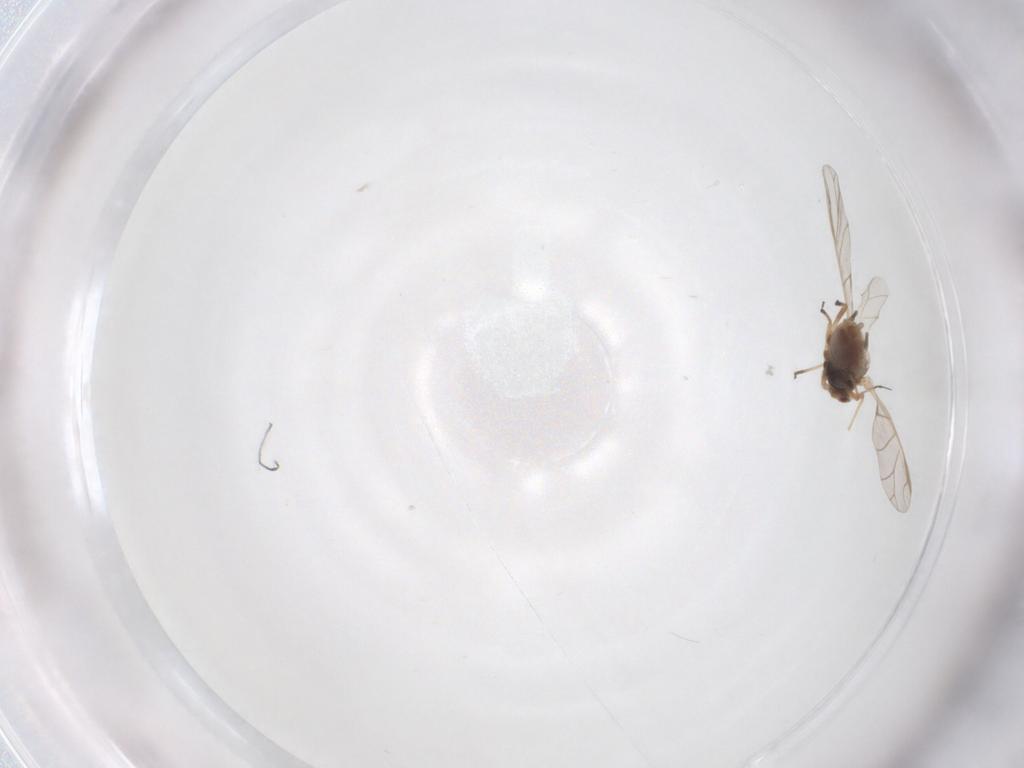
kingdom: Animalia
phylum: Arthropoda
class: Insecta
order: Hemiptera
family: Aphididae
